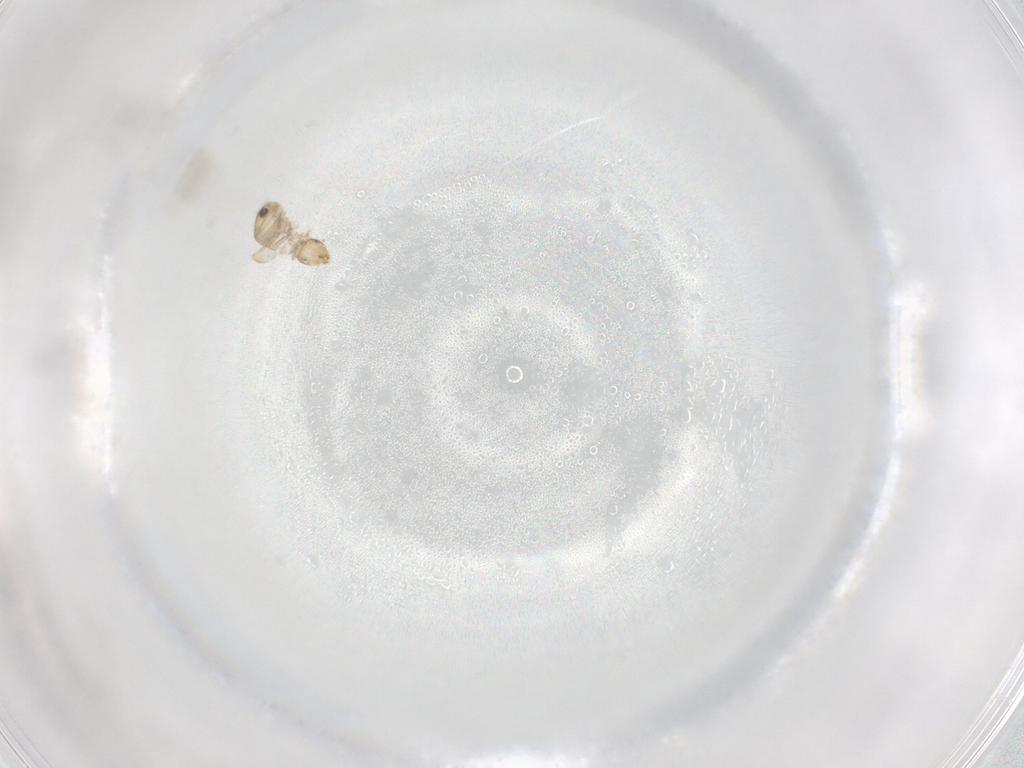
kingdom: Animalia
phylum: Arthropoda
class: Insecta
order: Psocodea
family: Liposcelididae
